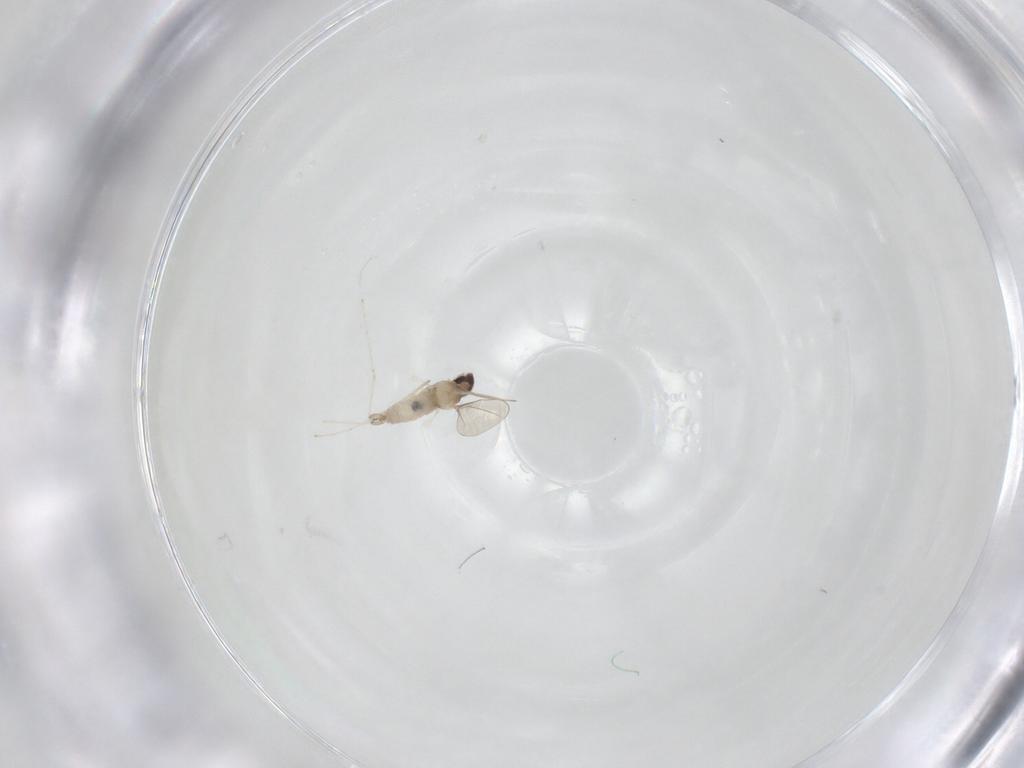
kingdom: Animalia
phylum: Arthropoda
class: Insecta
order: Diptera
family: Cecidomyiidae
